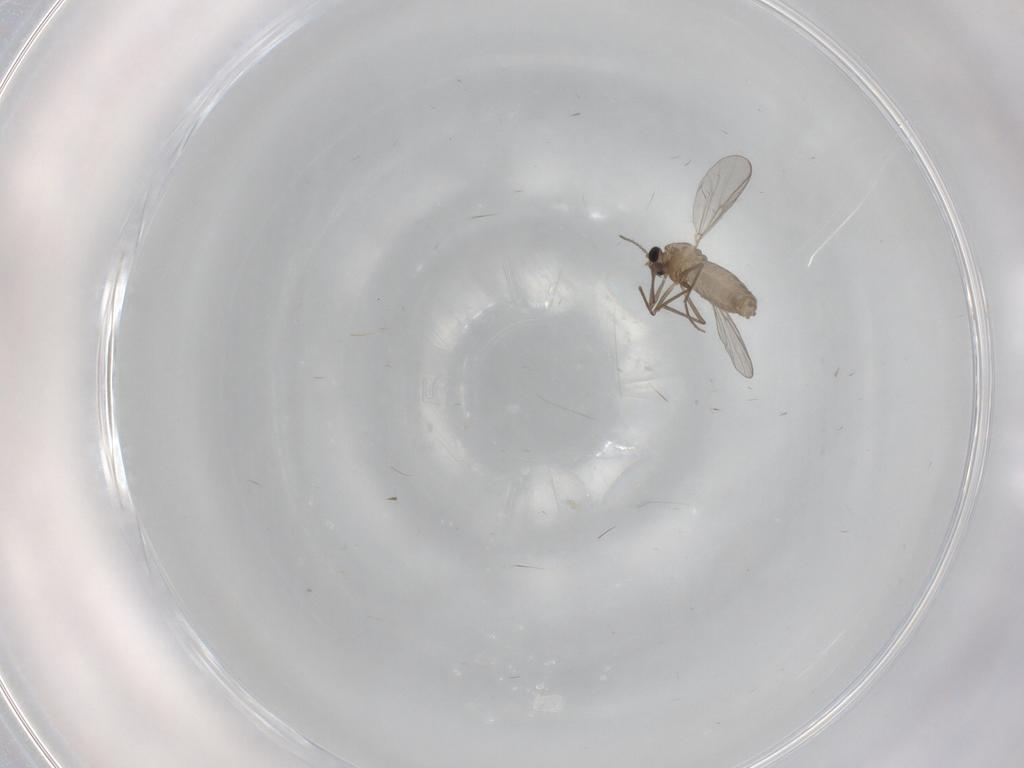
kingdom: Animalia
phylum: Arthropoda
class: Insecta
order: Diptera
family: Chironomidae
